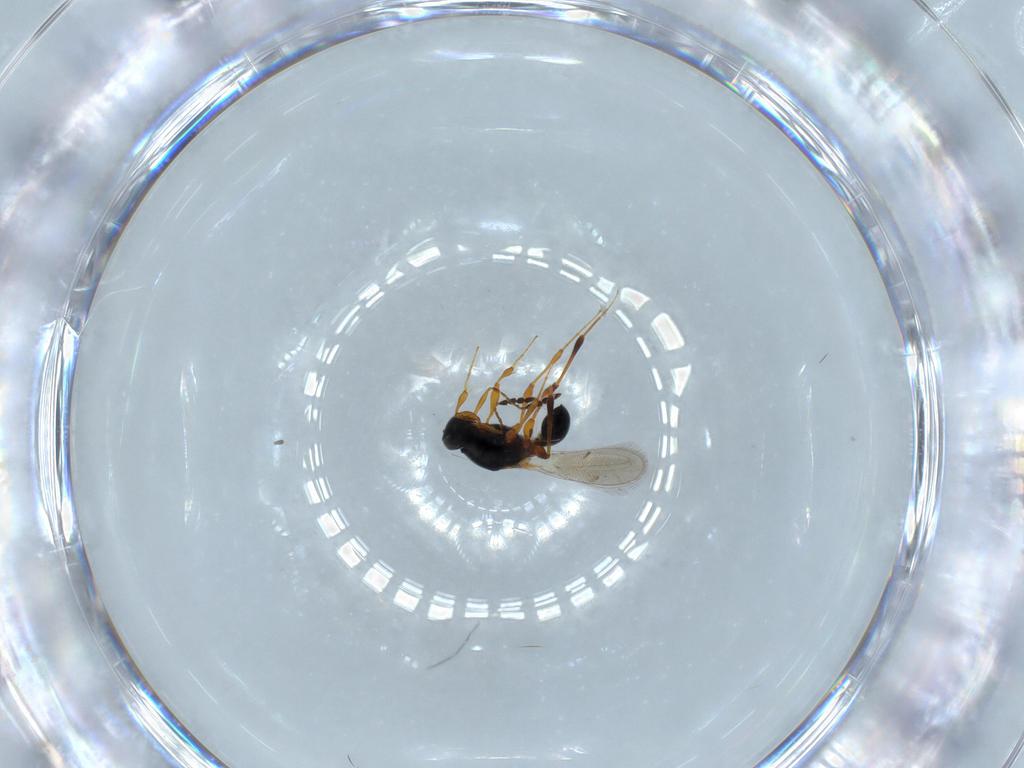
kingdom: Animalia
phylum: Arthropoda
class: Insecta
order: Hymenoptera
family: Platygastridae
